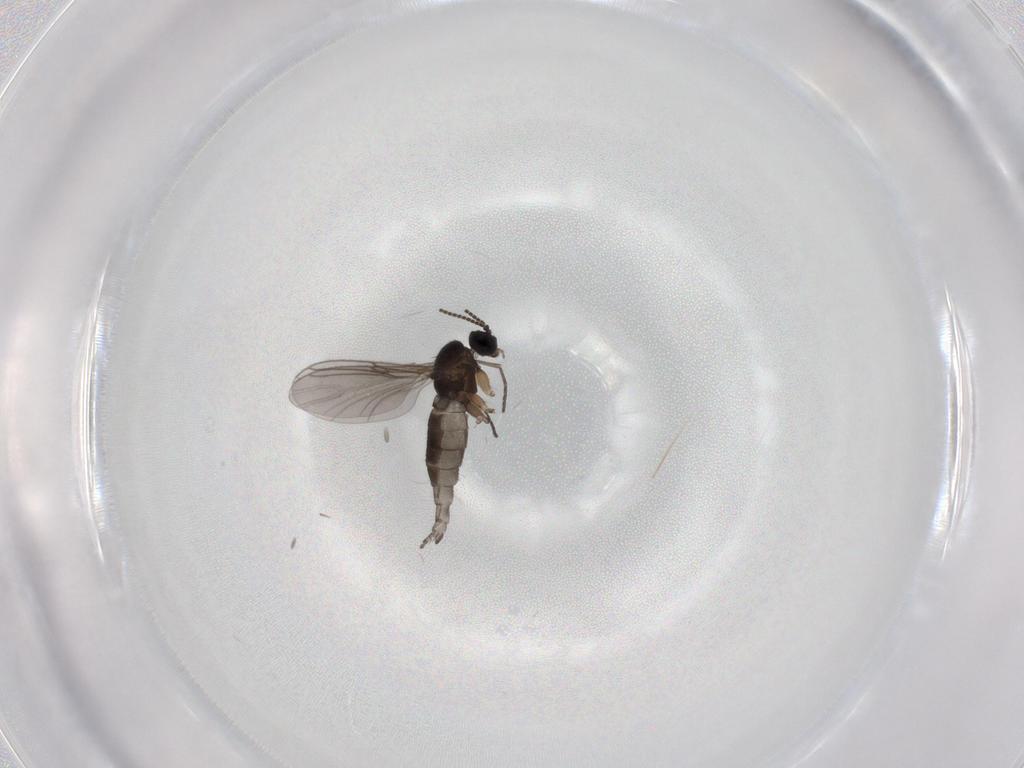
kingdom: Animalia
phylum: Arthropoda
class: Insecta
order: Diptera
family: Sciaridae
